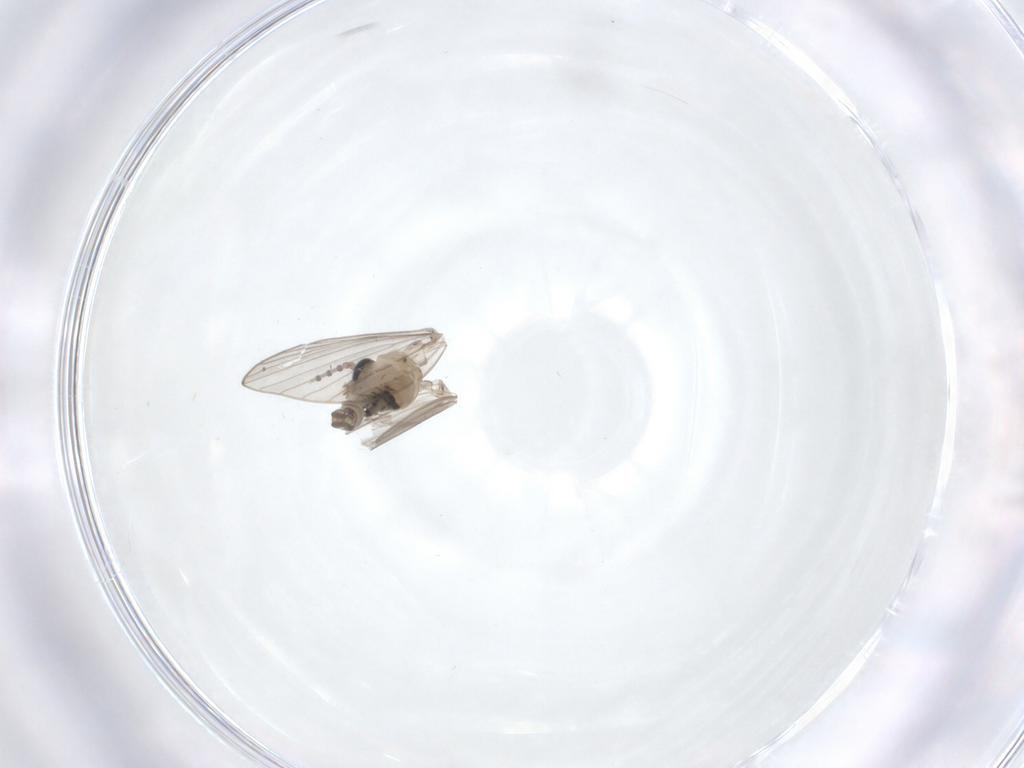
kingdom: Animalia
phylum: Arthropoda
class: Insecta
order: Diptera
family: Psychodidae
